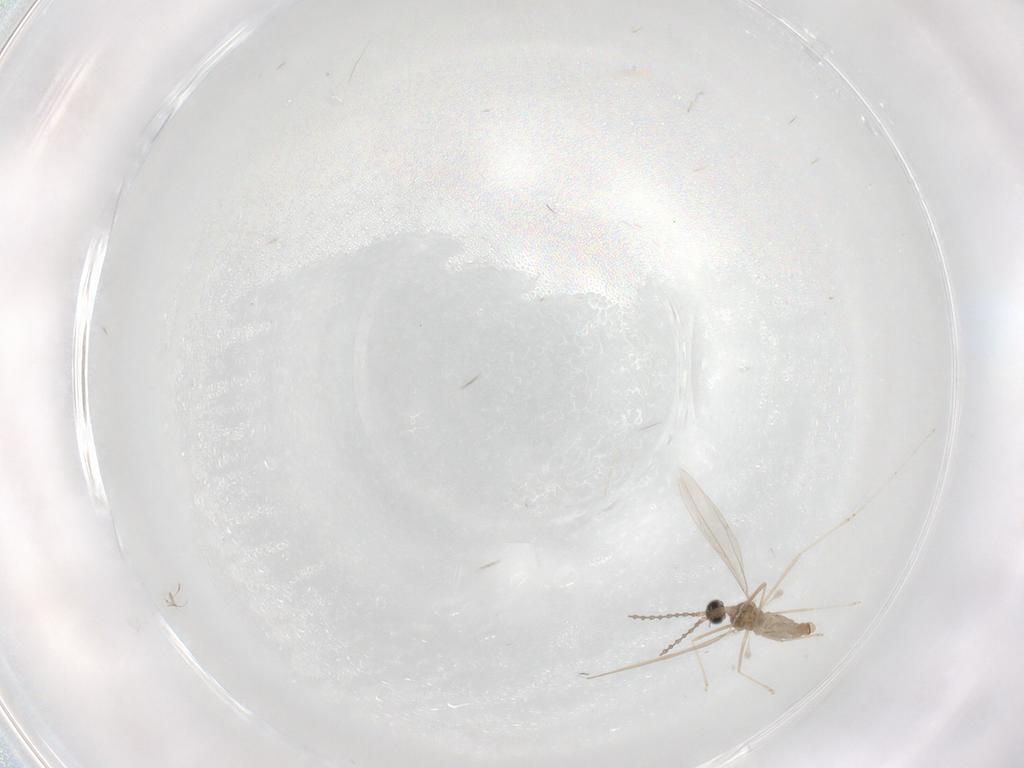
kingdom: Animalia
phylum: Arthropoda
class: Insecta
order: Diptera
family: Cecidomyiidae
